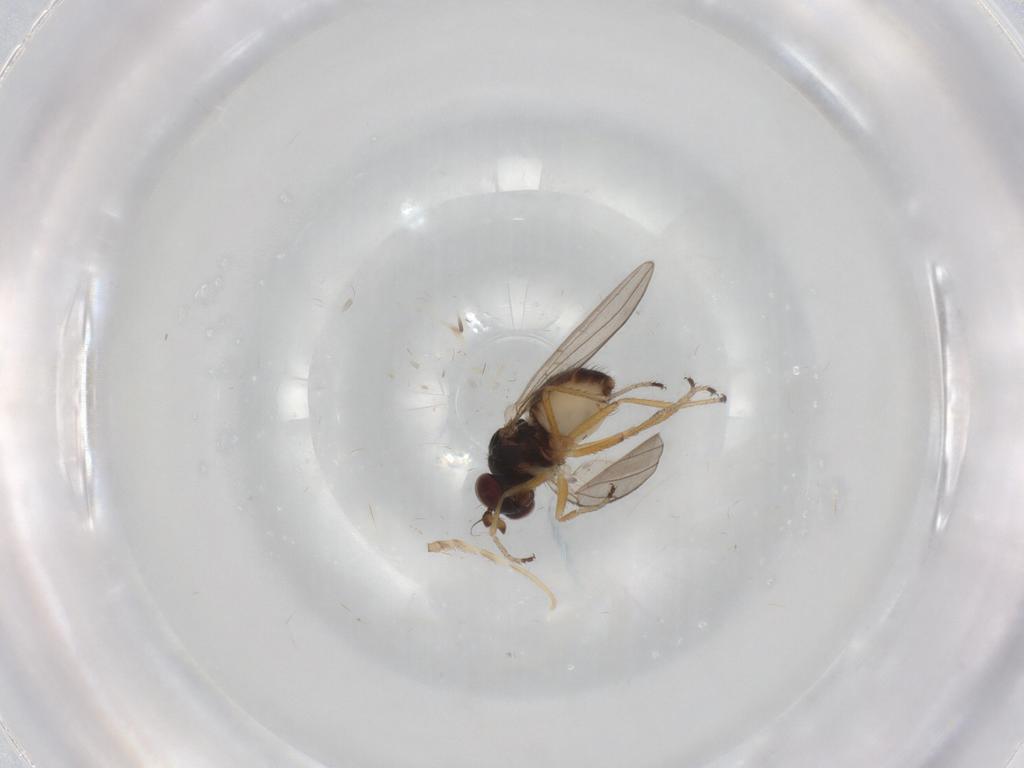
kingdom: Animalia
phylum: Arthropoda
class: Insecta
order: Diptera
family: Ephydridae
